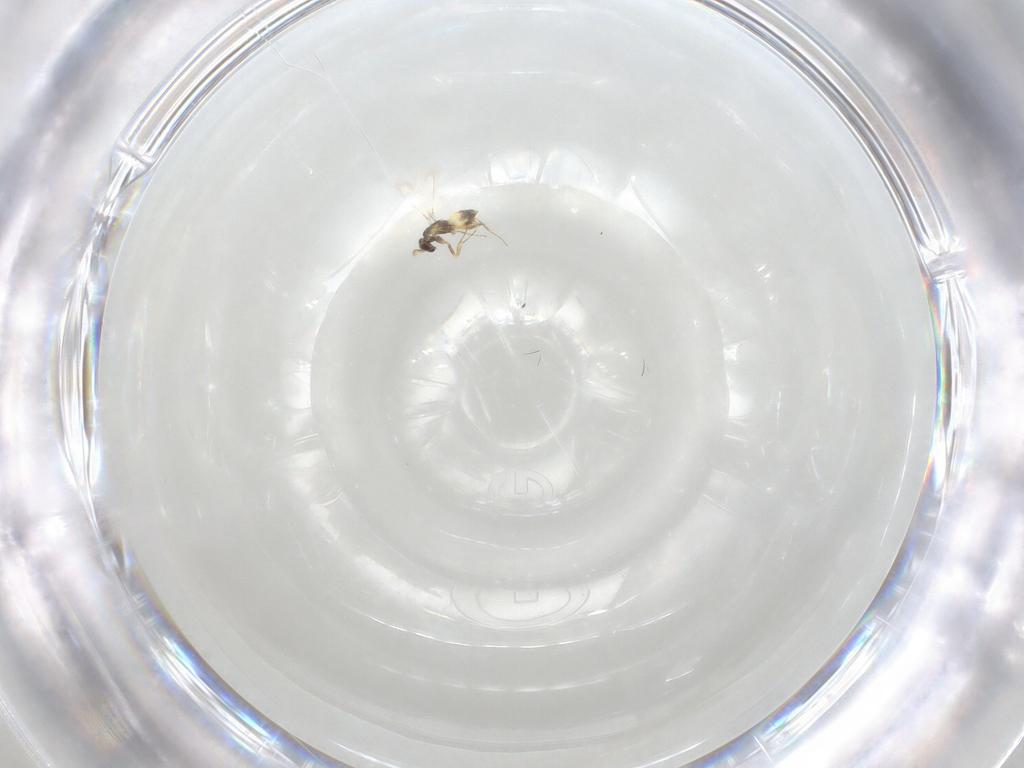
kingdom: Animalia
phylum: Arthropoda
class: Insecta
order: Hymenoptera
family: Mymaridae
